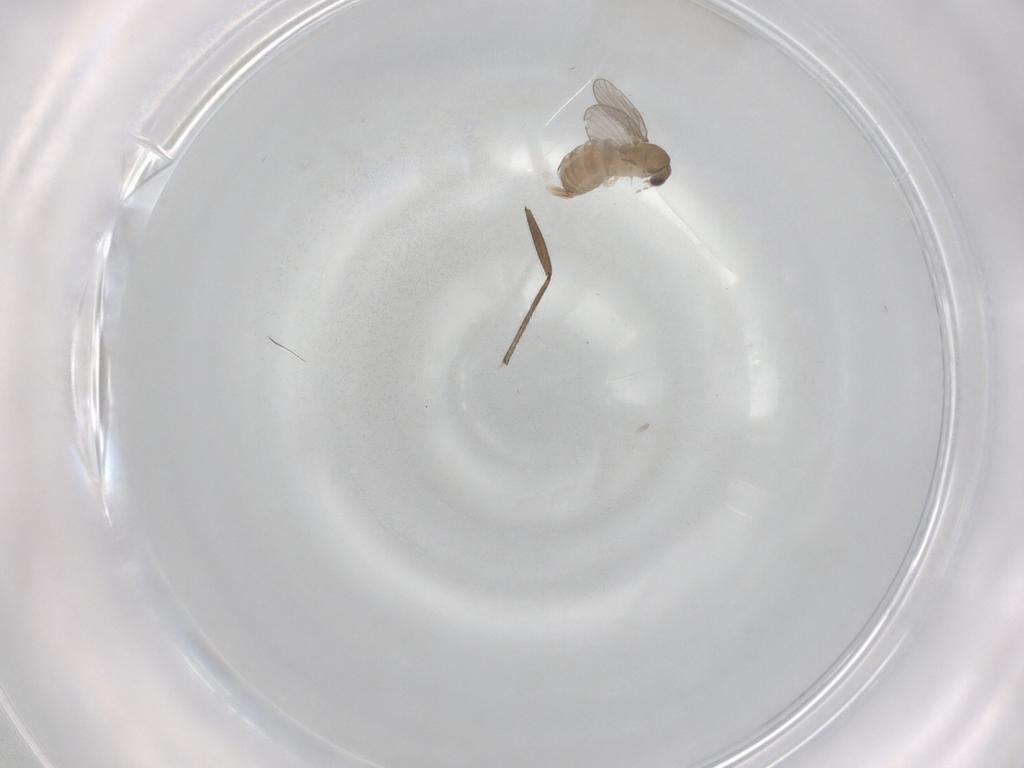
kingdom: Animalia
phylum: Arthropoda
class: Insecta
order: Diptera
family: Sciaridae
